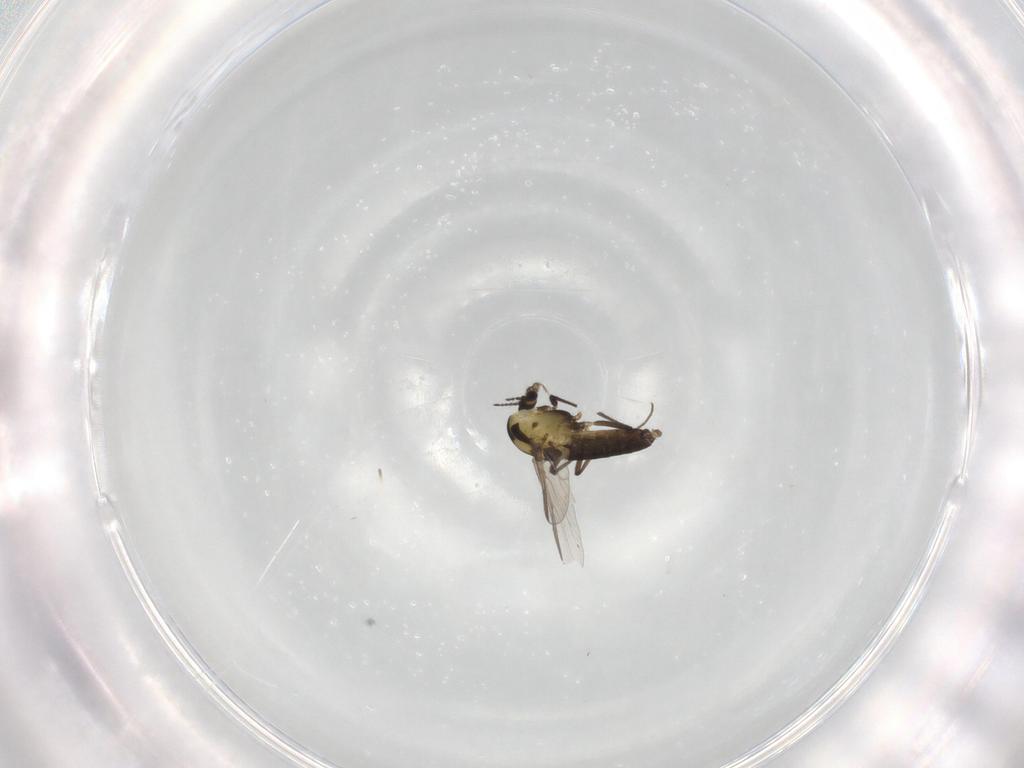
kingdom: Animalia
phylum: Arthropoda
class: Insecta
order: Diptera
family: Chironomidae
